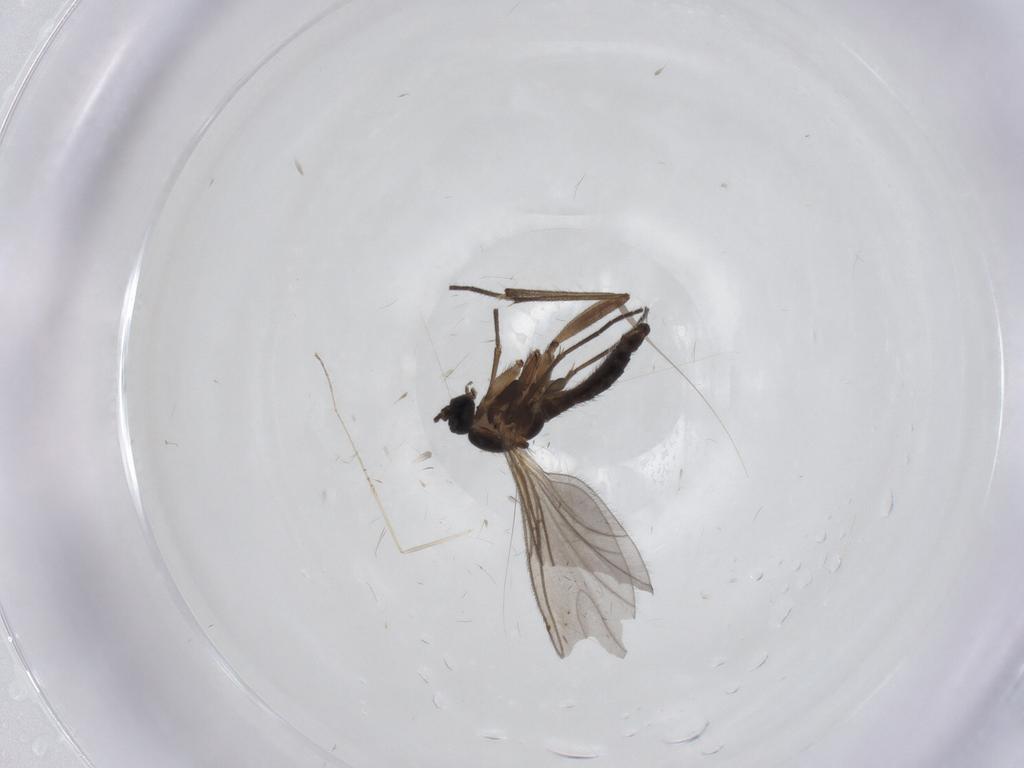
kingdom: Animalia
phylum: Arthropoda
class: Insecta
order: Diptera
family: Sciaridae
